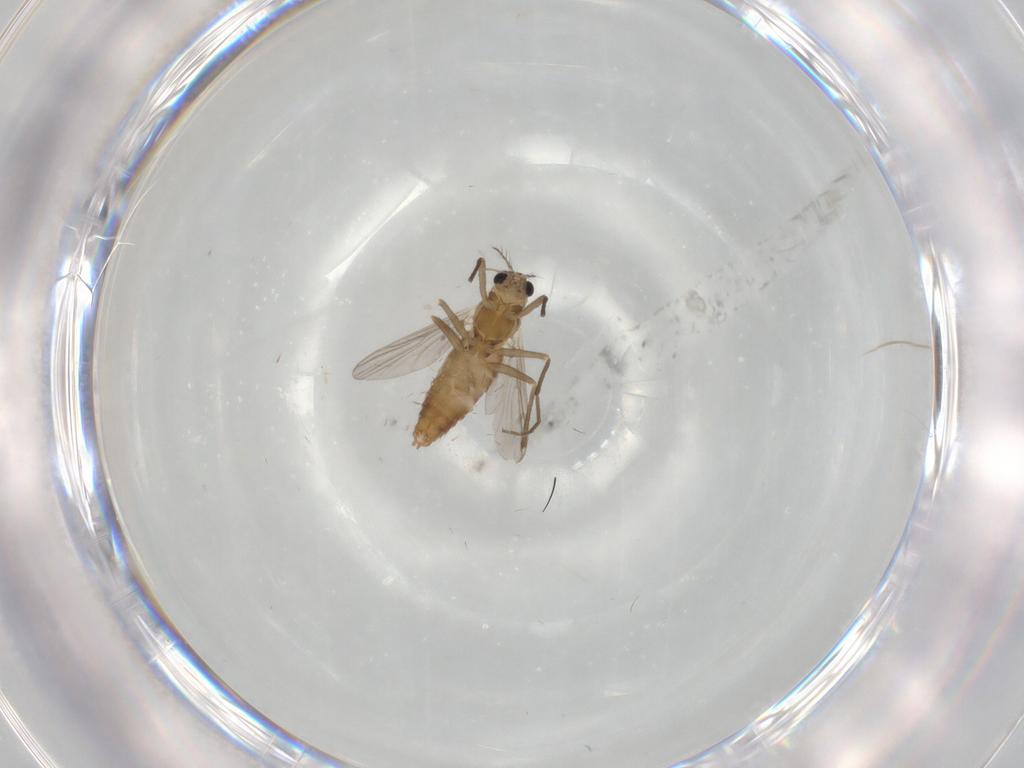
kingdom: Animalia
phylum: Arthropoda
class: Insecta
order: Diptera
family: Chironomidae
